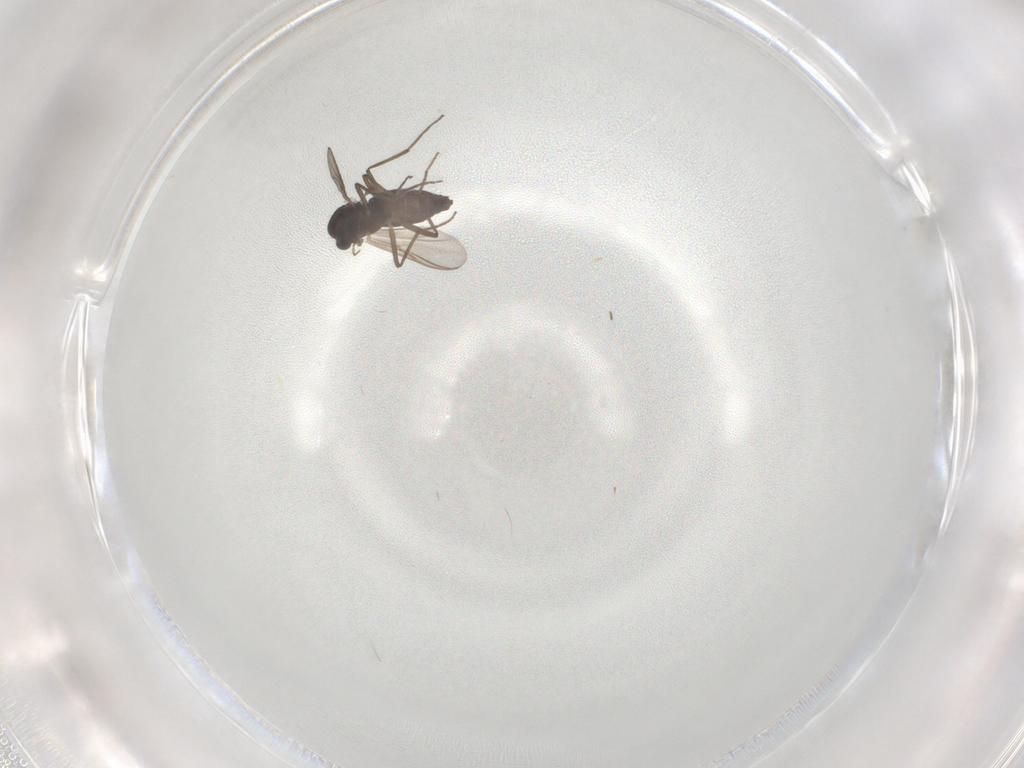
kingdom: Animalia
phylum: Arthropoda
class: Insecta
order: Diptera
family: Chironomidae
